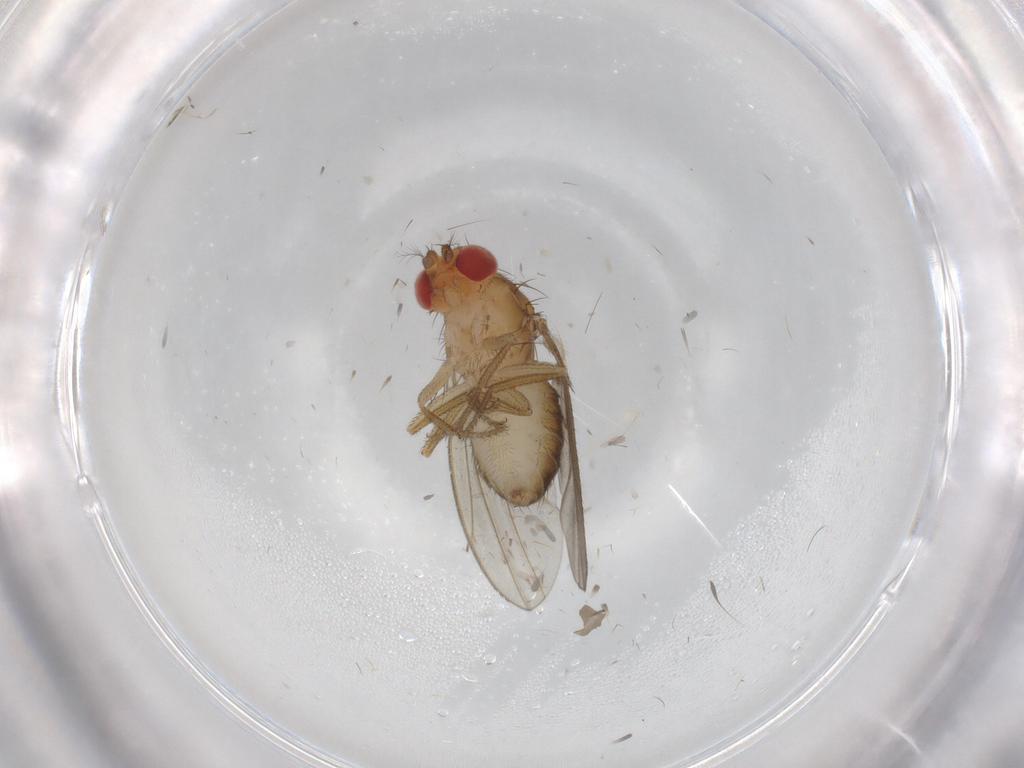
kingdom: Animalia
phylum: Arthropoda
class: Insecta
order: Diptera
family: Drosophilidae
